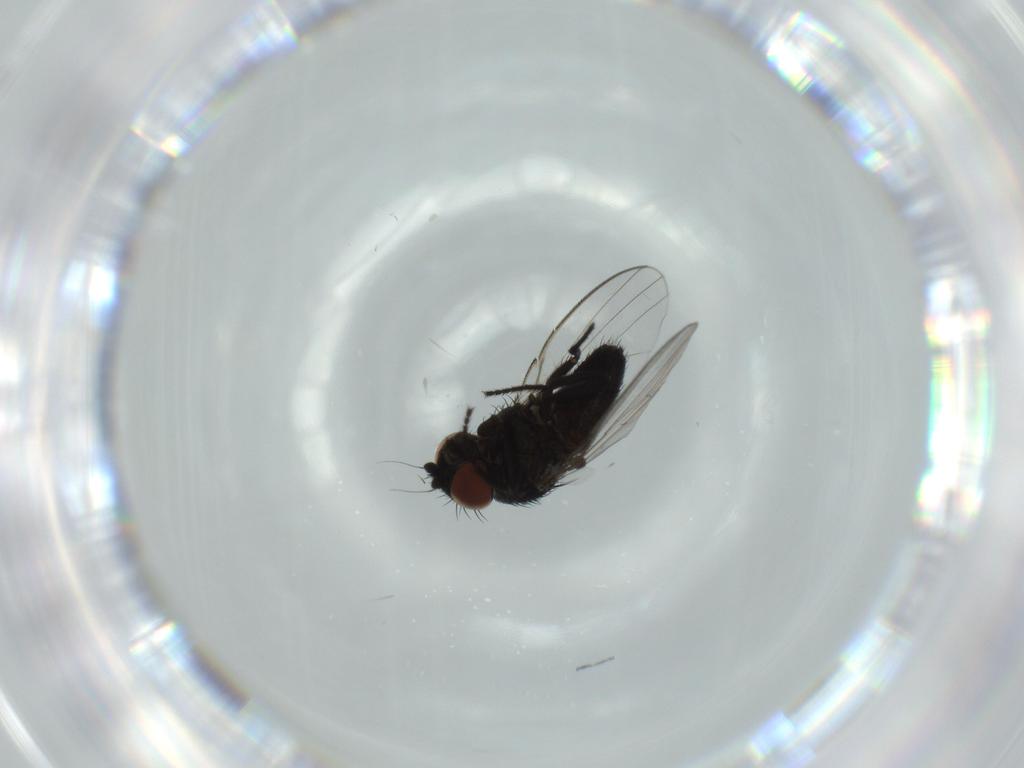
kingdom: Animalia
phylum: Arthropoda
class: Insecta
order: Diptera
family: Milichiidae
